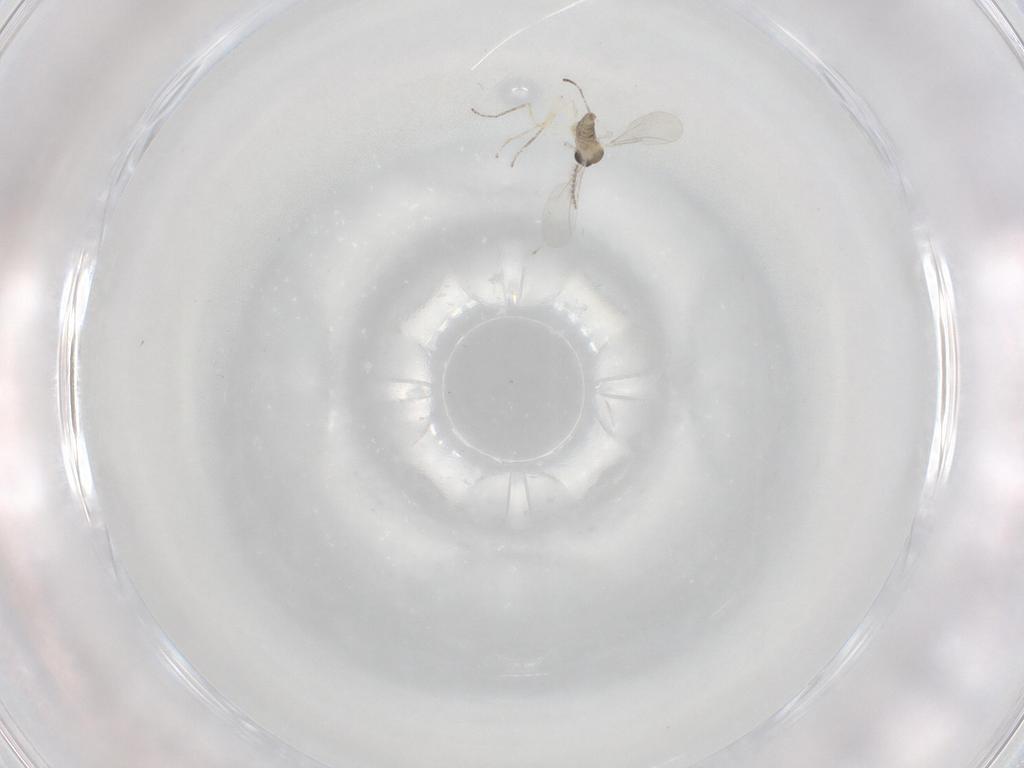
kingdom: Animalia
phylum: Arthropoda
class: Insecta
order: Diptera
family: Cecidomyiidae
